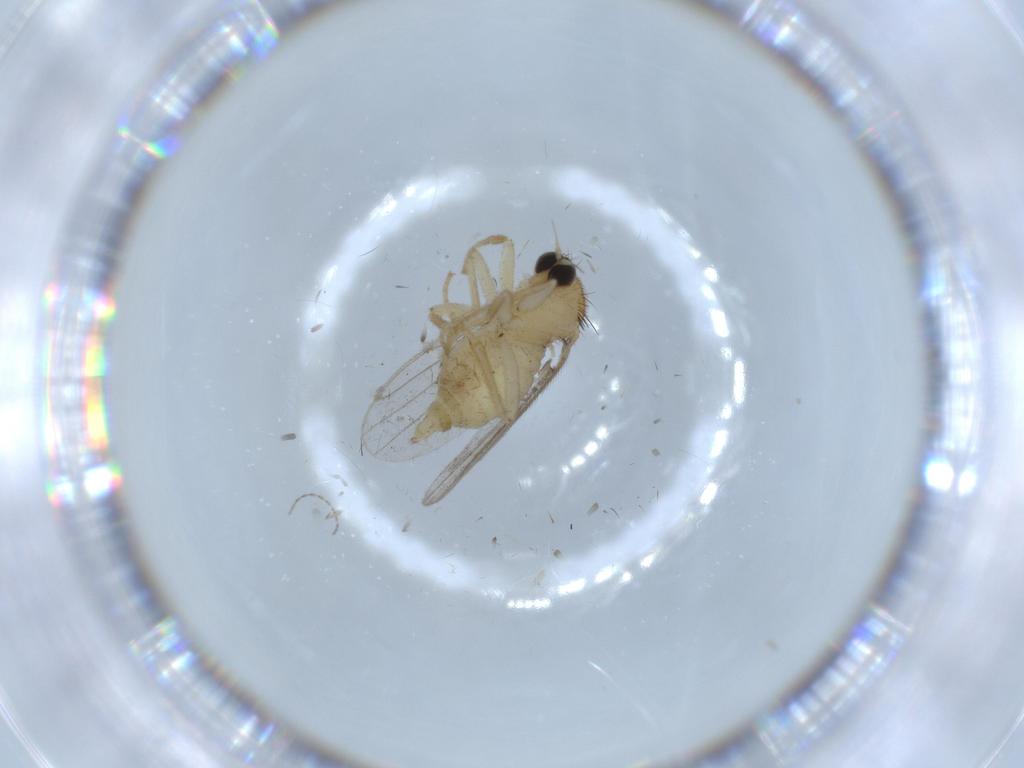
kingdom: Animalia
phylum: Arthropoda
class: Insecta
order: Diptera
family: Hybotidae
